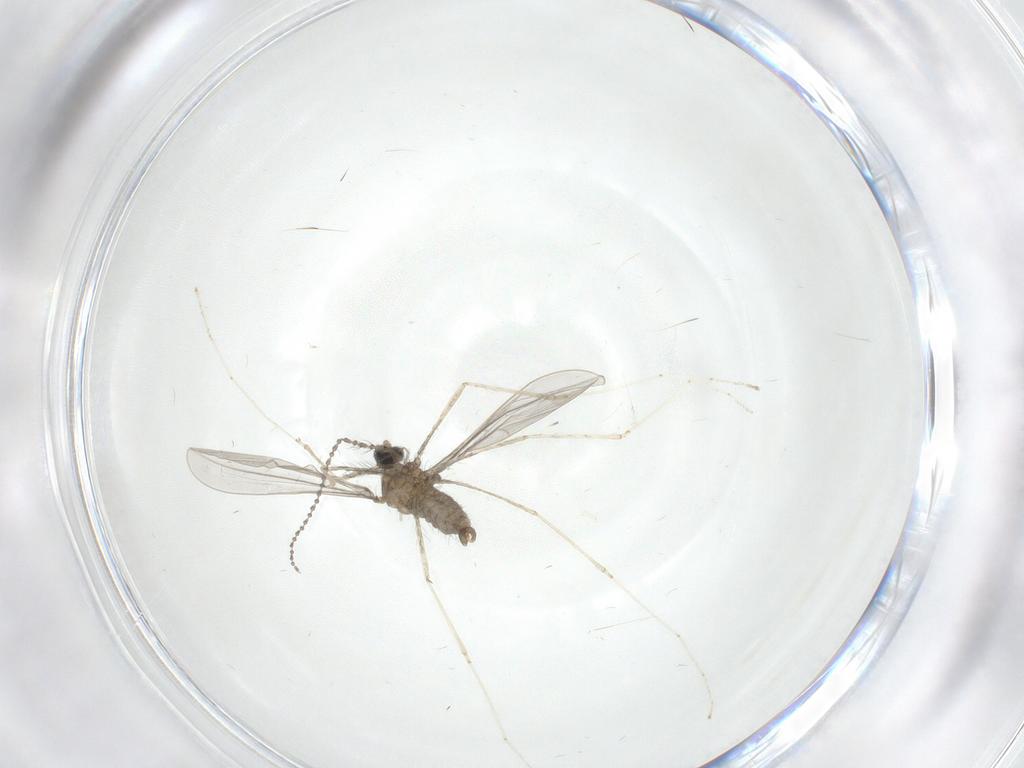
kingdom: Animalia
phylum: Arthropoda
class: Insecta
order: Diptera
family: Cecidomyiidae
